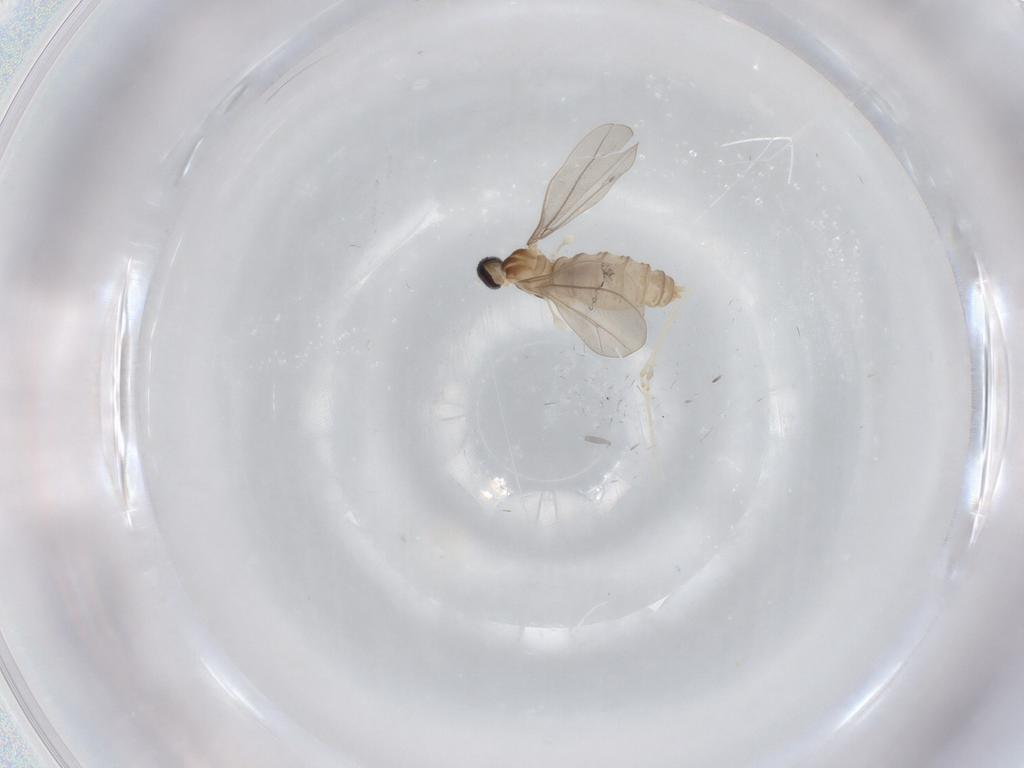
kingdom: Animalia
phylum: Arthropoda
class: Insecta
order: Diptera
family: Cecidomyiidae
